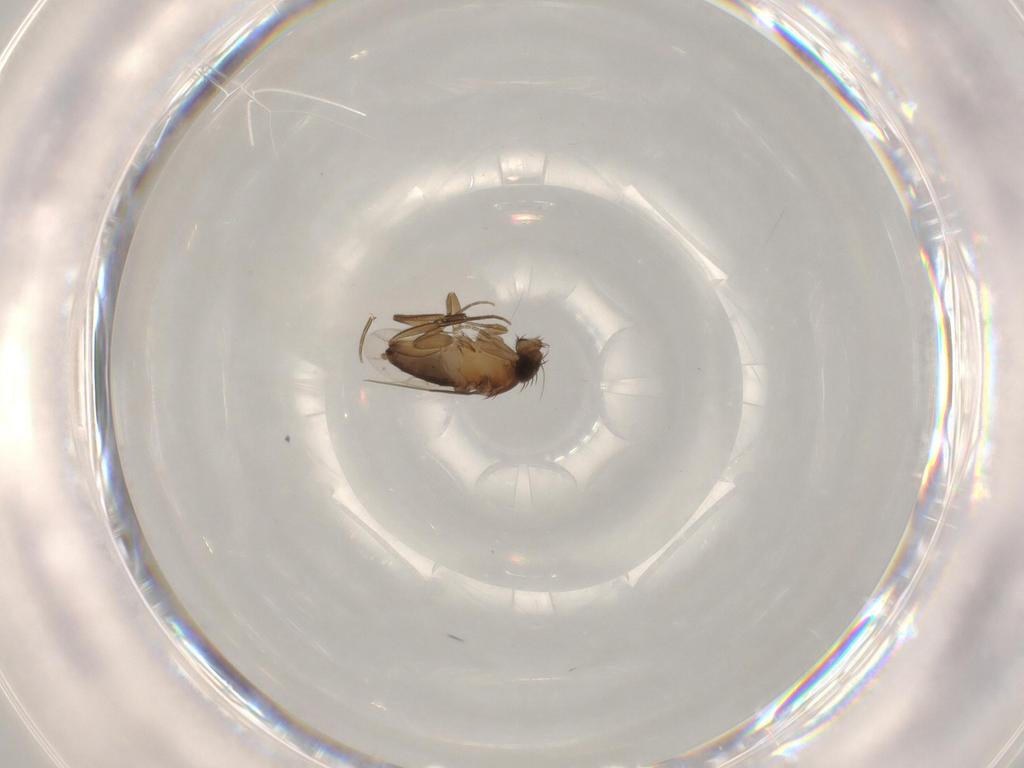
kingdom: Animalia
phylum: Arthropoda
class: Insecta
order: Diptera
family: Phoridae
